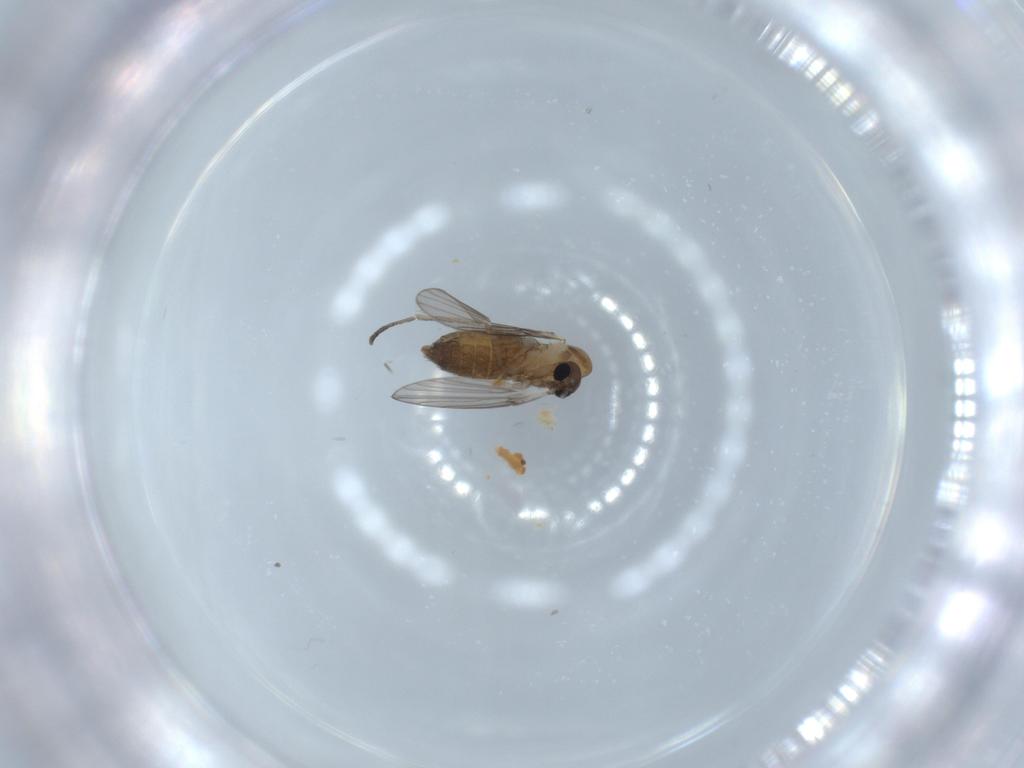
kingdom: Animalia
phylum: Arthropoda
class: Insecta
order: Diptera
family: Psychodidae
